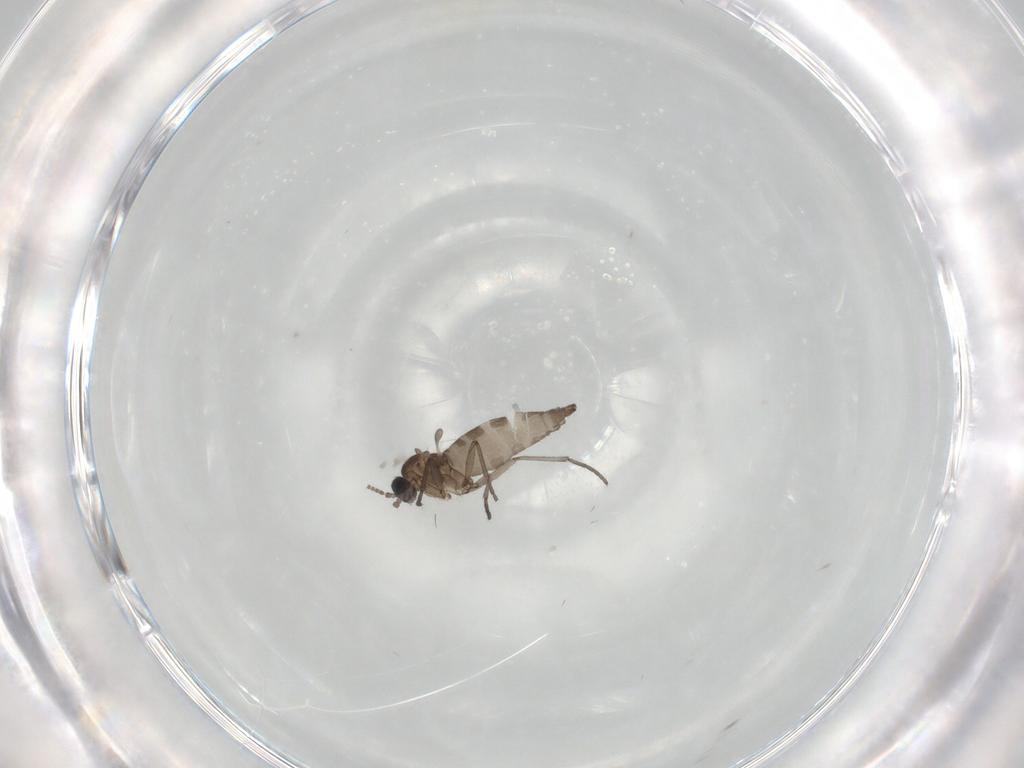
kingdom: Animalia
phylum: Arthropoda
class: Insecta
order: Diptera
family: Sciaridae
